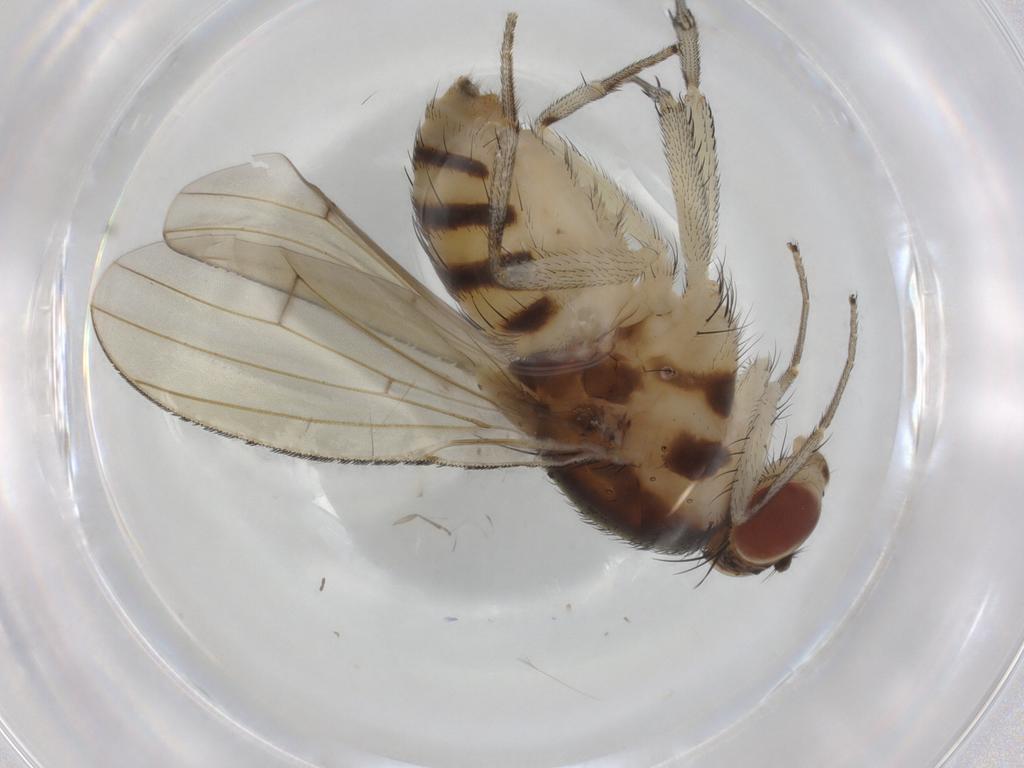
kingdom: Animalia
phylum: Arthropoda
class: Insecta
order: Diptera
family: Cecidomyiidae
